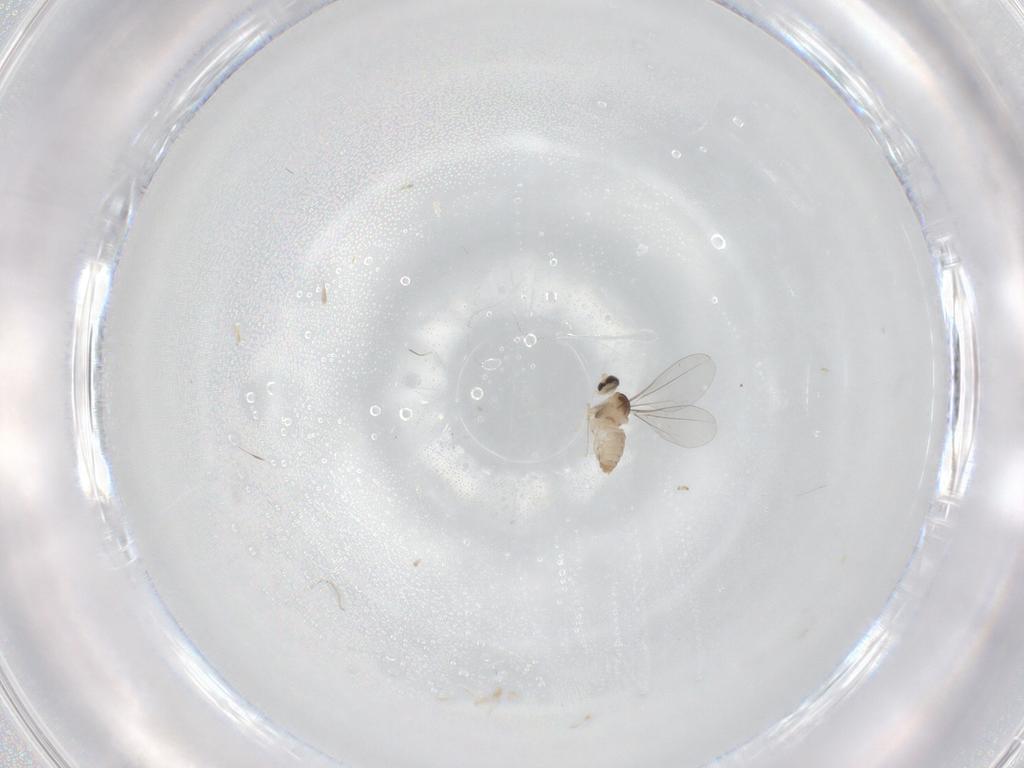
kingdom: Animalia
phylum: Arthropoda
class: Insecta
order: Diptera
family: Cecidomyiidae
